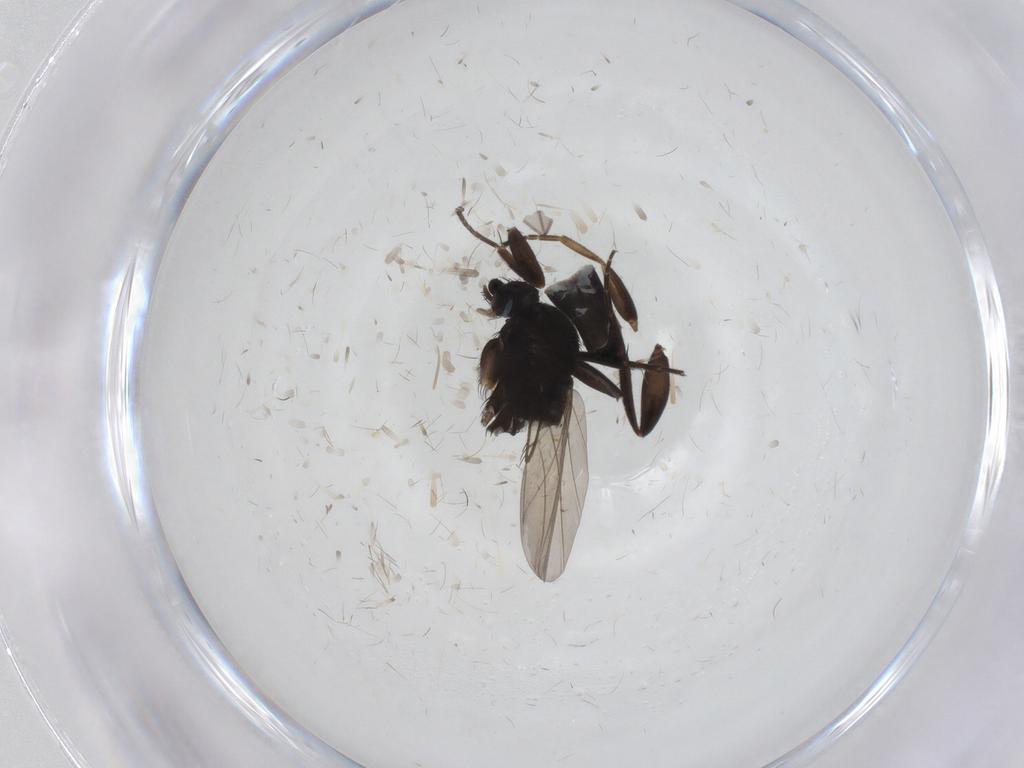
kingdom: Animalia
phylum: Arthropoda
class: Insecta
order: Diptera
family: Phoridae
